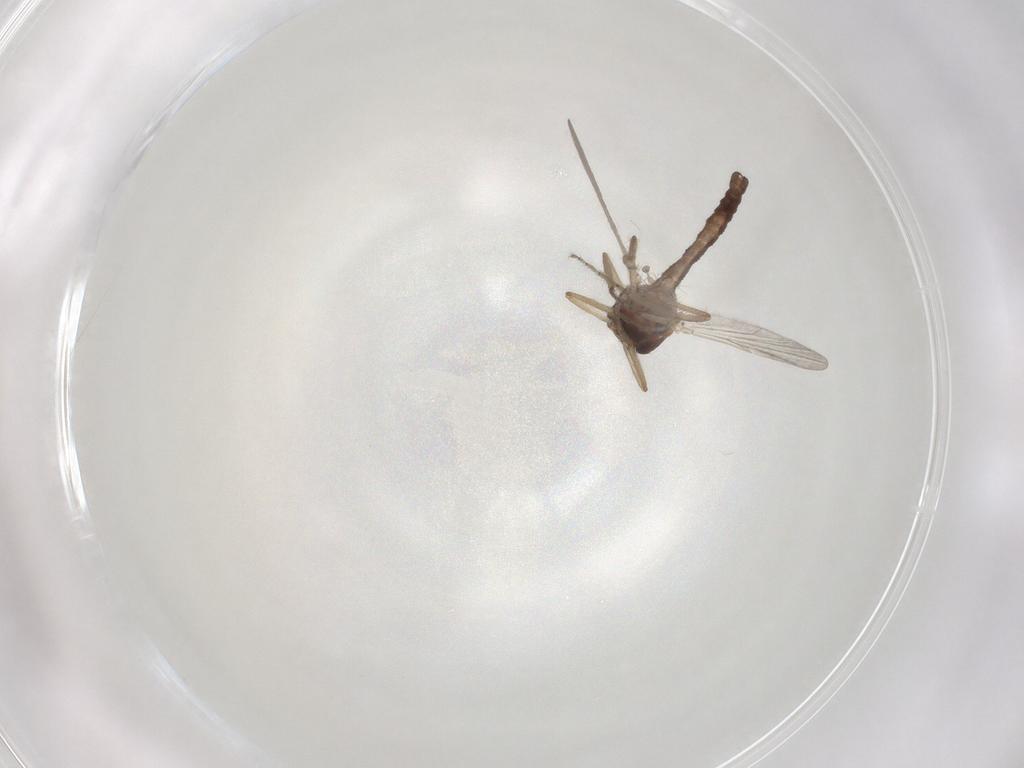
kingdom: Animalia
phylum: Arthropoda
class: Insecta
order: Diptera
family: Ceratopogonidae
